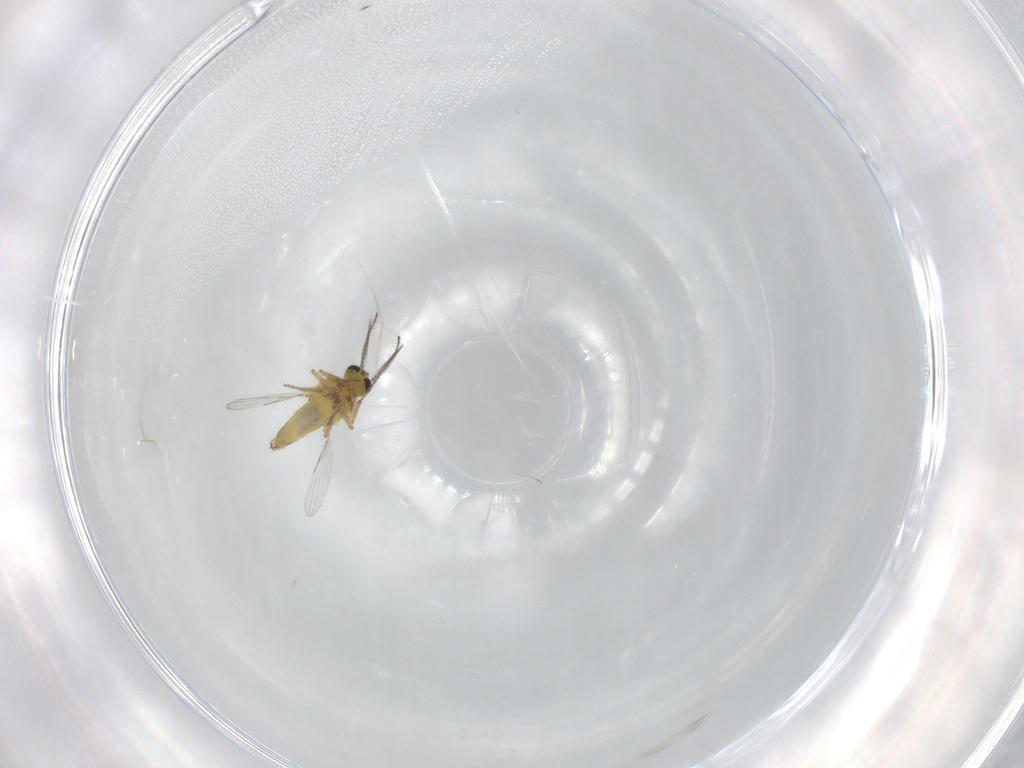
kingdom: Animalia
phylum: Arthropoda
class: Insecta
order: Diptera
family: Ceratopogonidae
